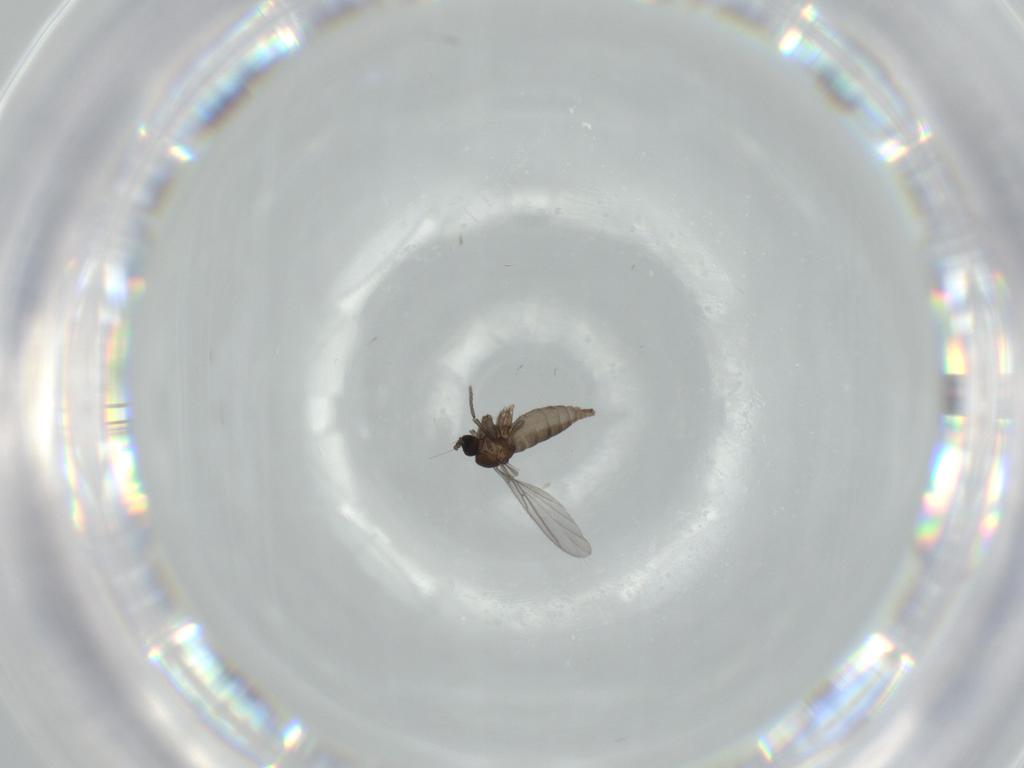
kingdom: Animalia
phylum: Arthropoda
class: Insecta
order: Diptera
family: Sciaridae
